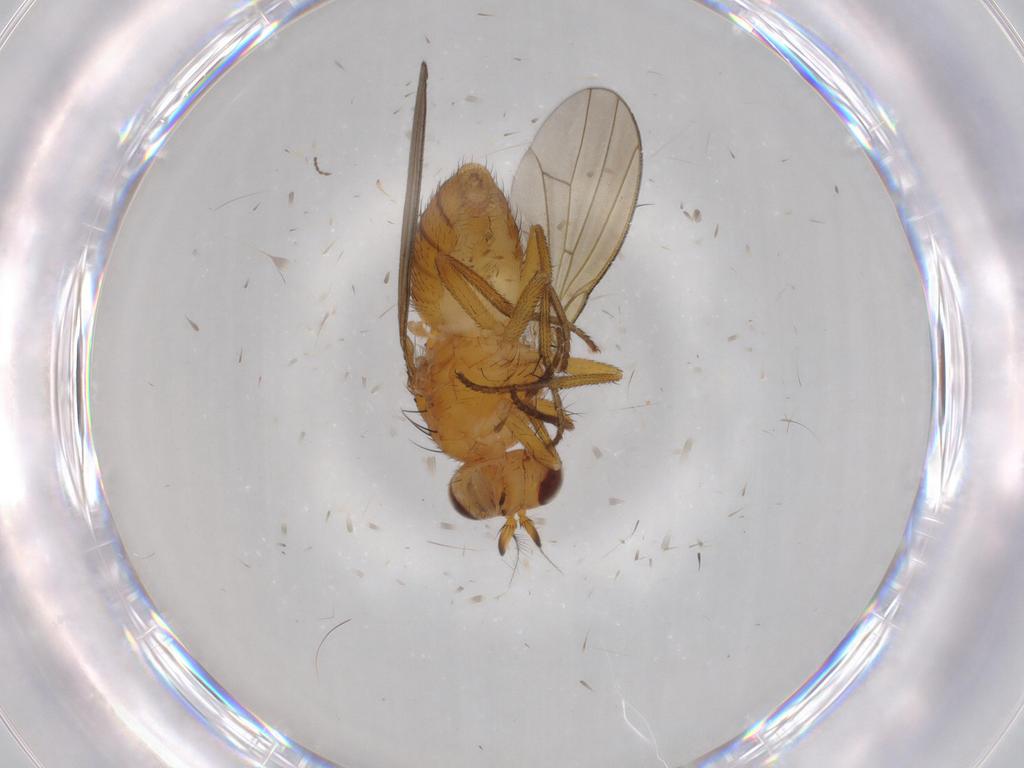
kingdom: Animalia
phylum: Arthropoda
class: Insecta
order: Diptera
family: Lauxaniidae
